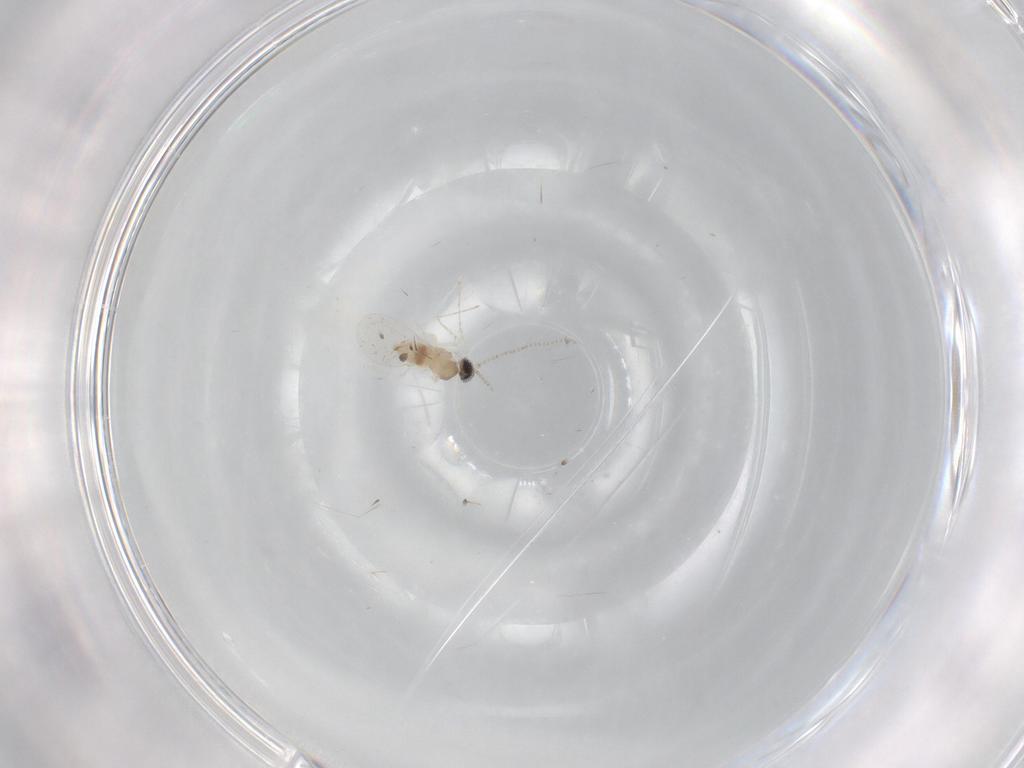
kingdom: Animalia
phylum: Arthropoda
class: Insecta
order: Diptera
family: Cecidomyiidae
